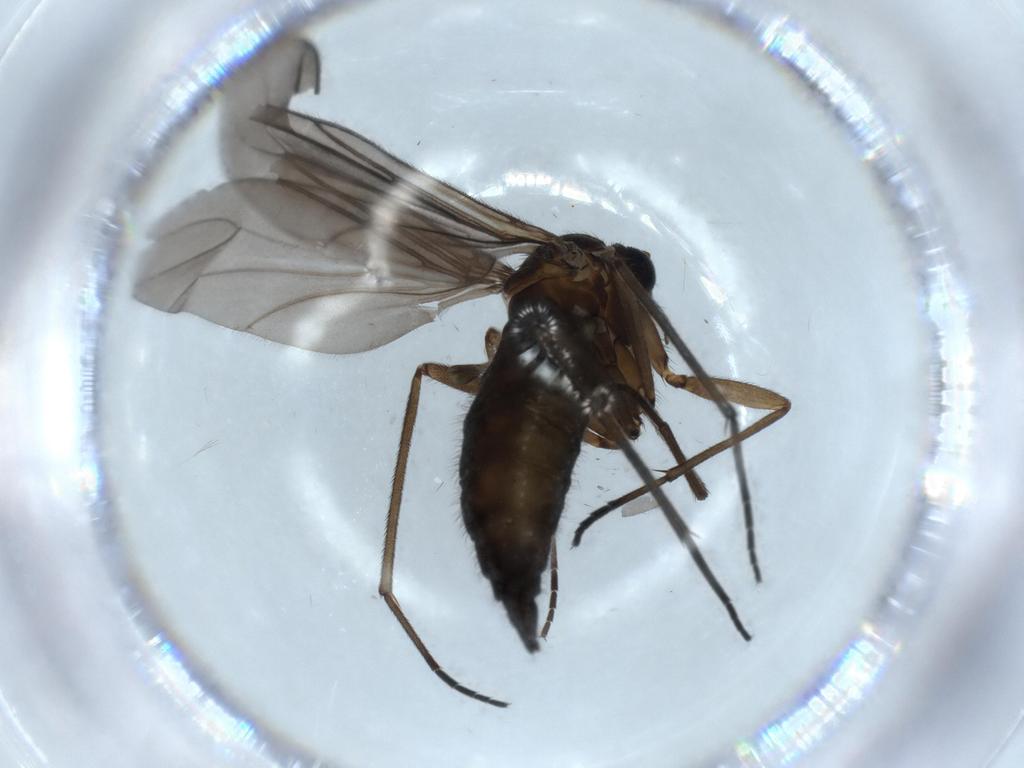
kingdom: Animalia
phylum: Arthropoda
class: Insecta
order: Diptera
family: Sciaridae
